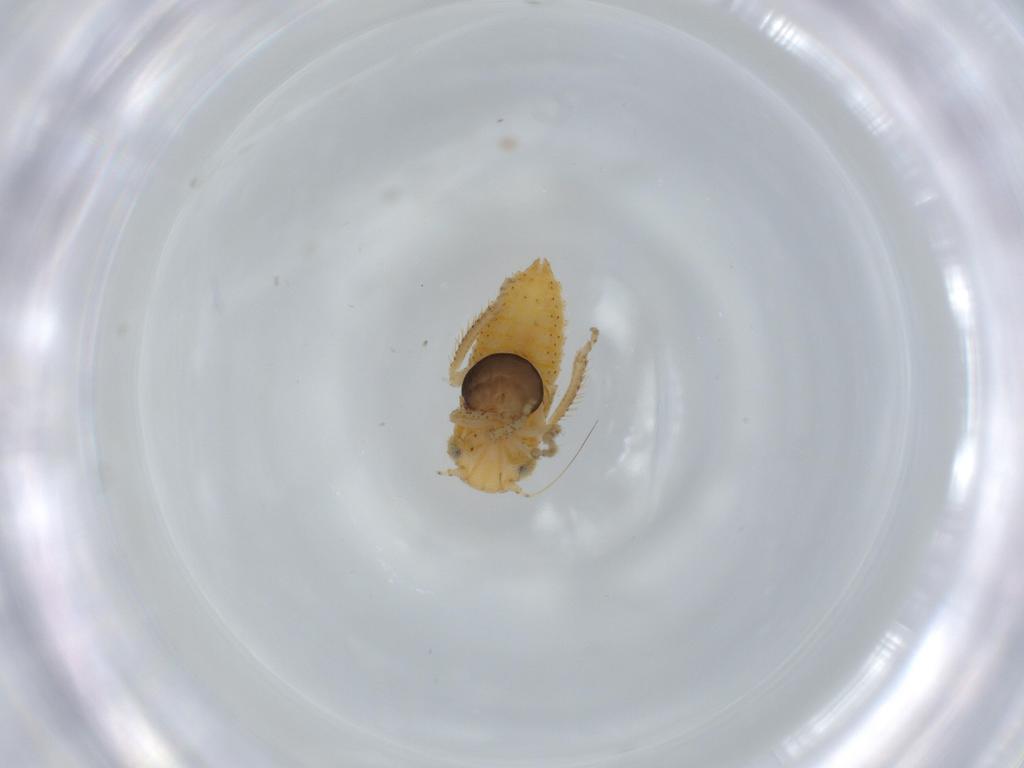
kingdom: Animalia
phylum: Arthropoda
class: Insecta
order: Hemiptera
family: Cicadellidae
